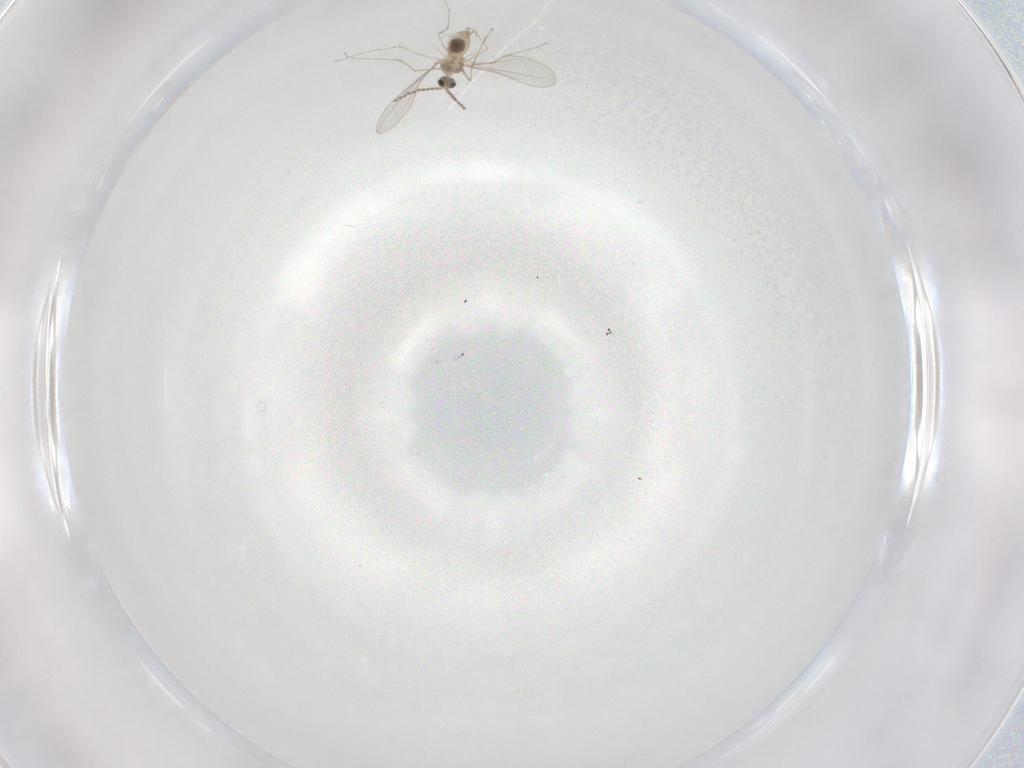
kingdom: Animalia
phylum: Arthropoda
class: Insecta
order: Diptera
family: Cecidomyiidae
